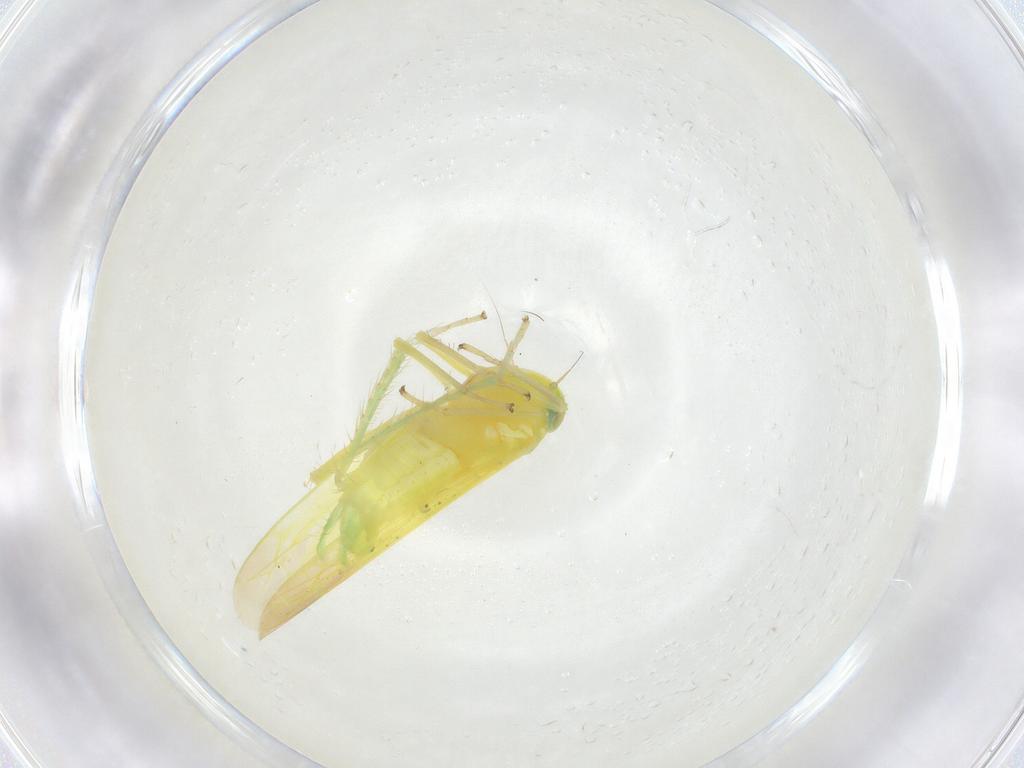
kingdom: Animalia
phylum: Arthropoda
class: Insecta
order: Hemiptera
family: Cicadellidae
